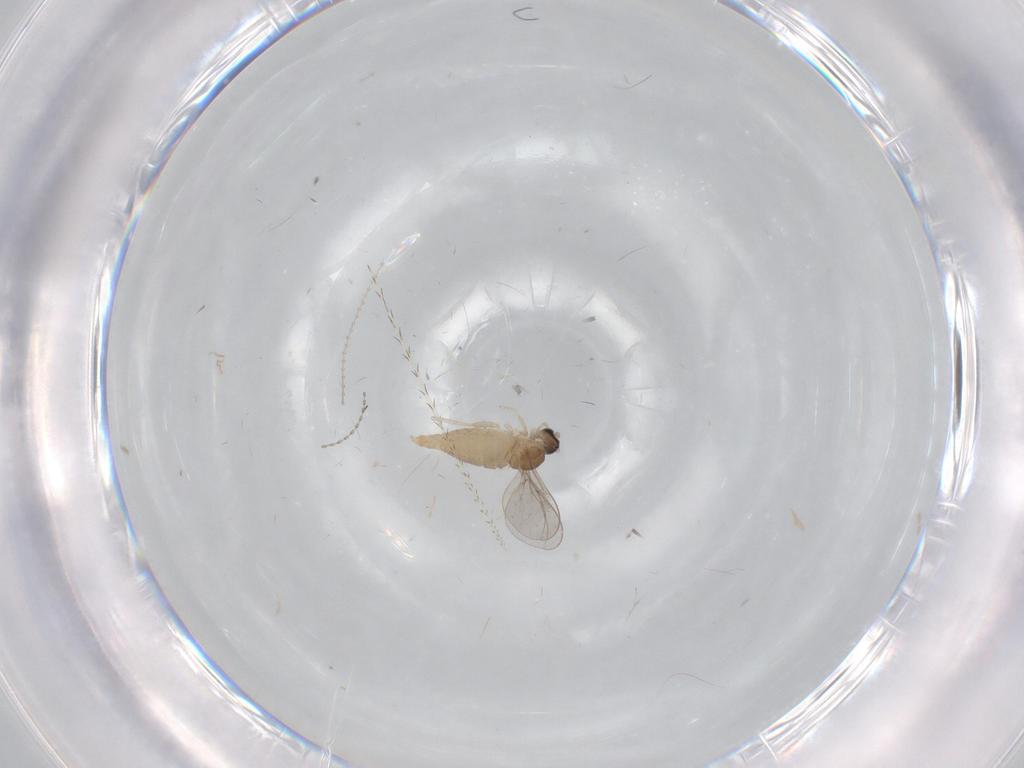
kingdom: Animalia
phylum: Arthropoda
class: Insecta
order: Diptera
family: Cecidomyiidae
